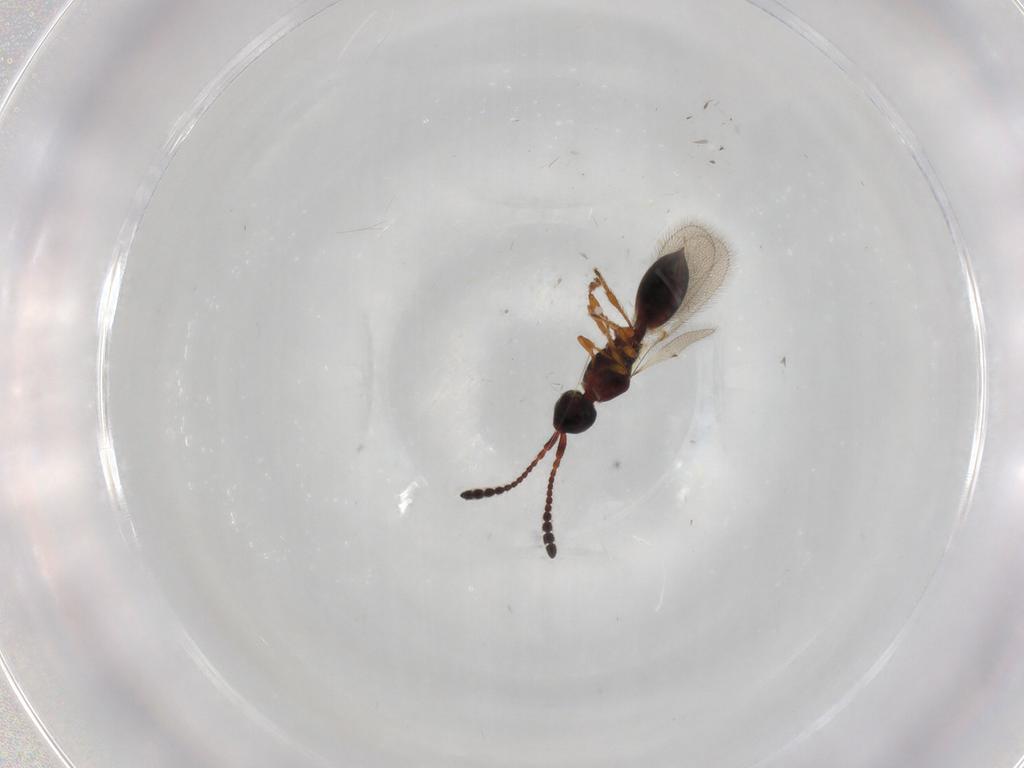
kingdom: Animalia
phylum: Arthropoda
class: Insecta
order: Hymenoptera
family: Diapriidae
